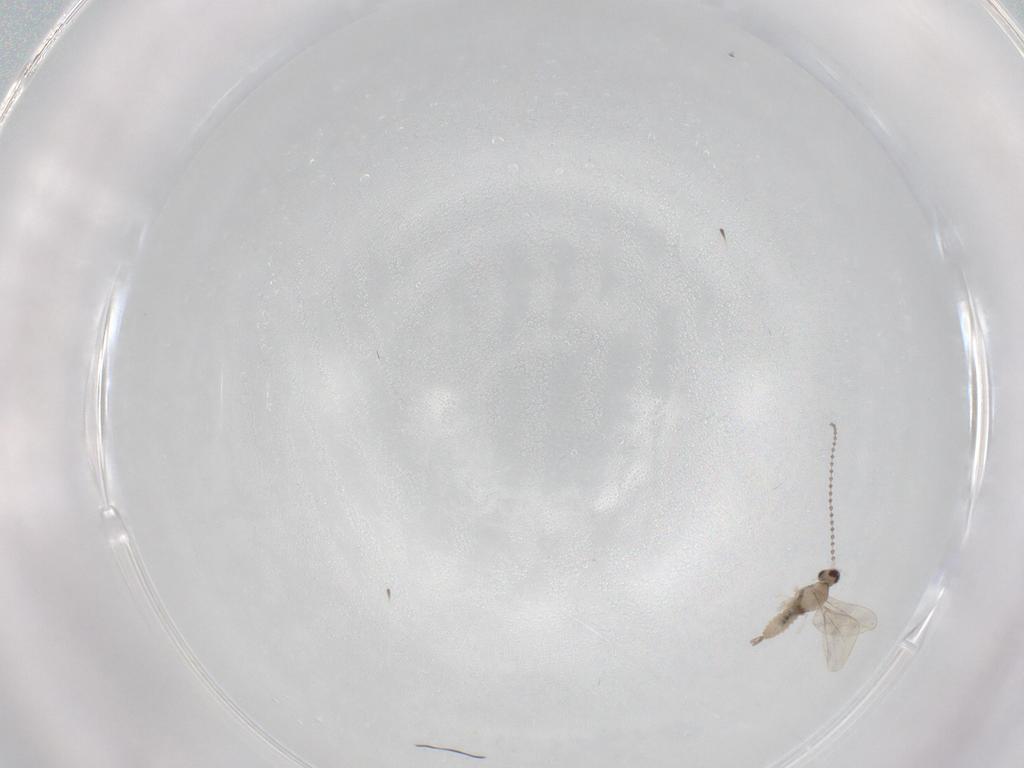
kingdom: Animalia
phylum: Arthropoda
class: Insecta
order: Diptera
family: Cecidomyiidae
